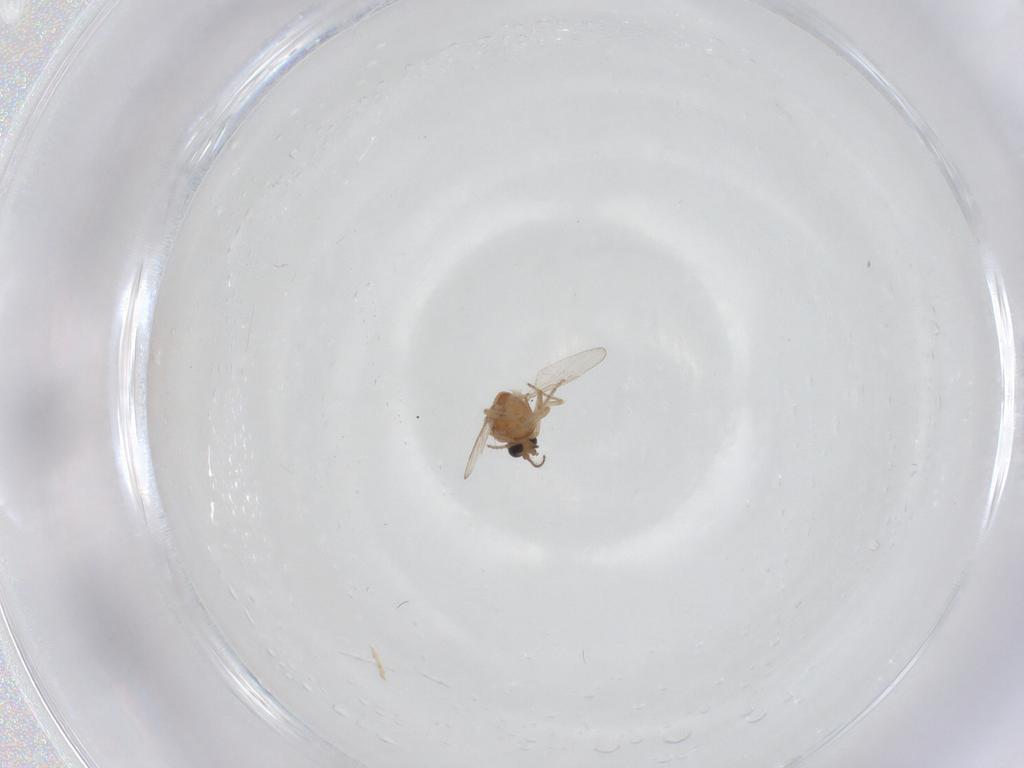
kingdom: Animalia
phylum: Arthropoda
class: Insecta
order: Diptera
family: Ceratopogonidae
